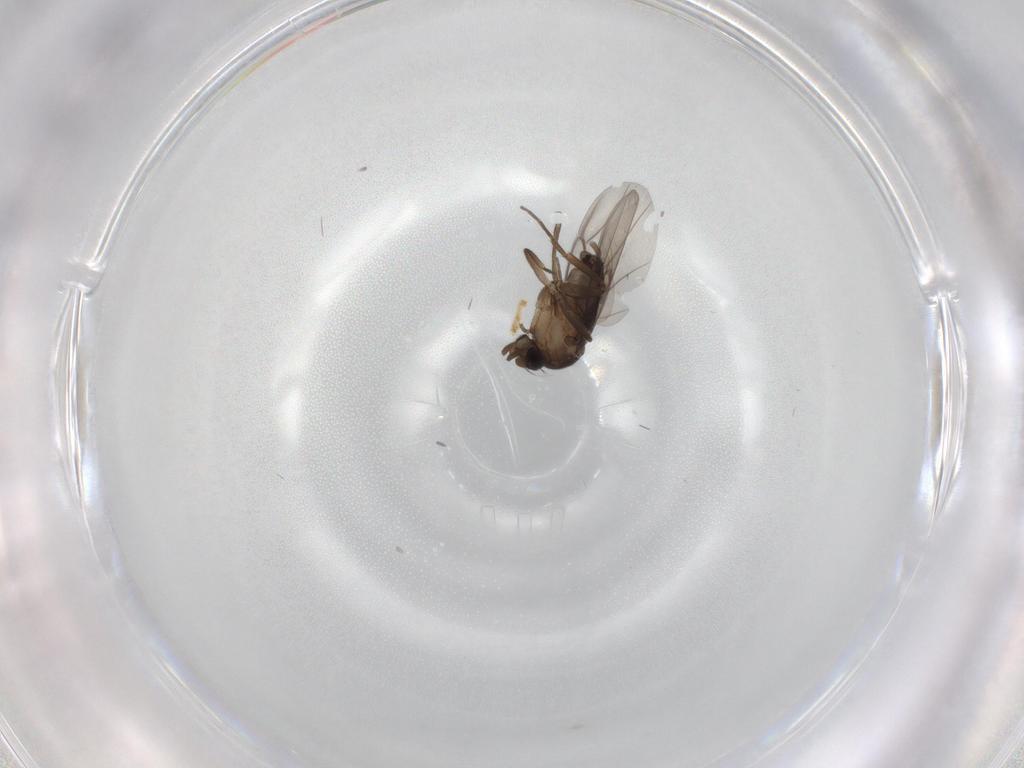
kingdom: Animalia
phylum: Arthropoda
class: Insecta
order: Diptera
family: Phoridae
